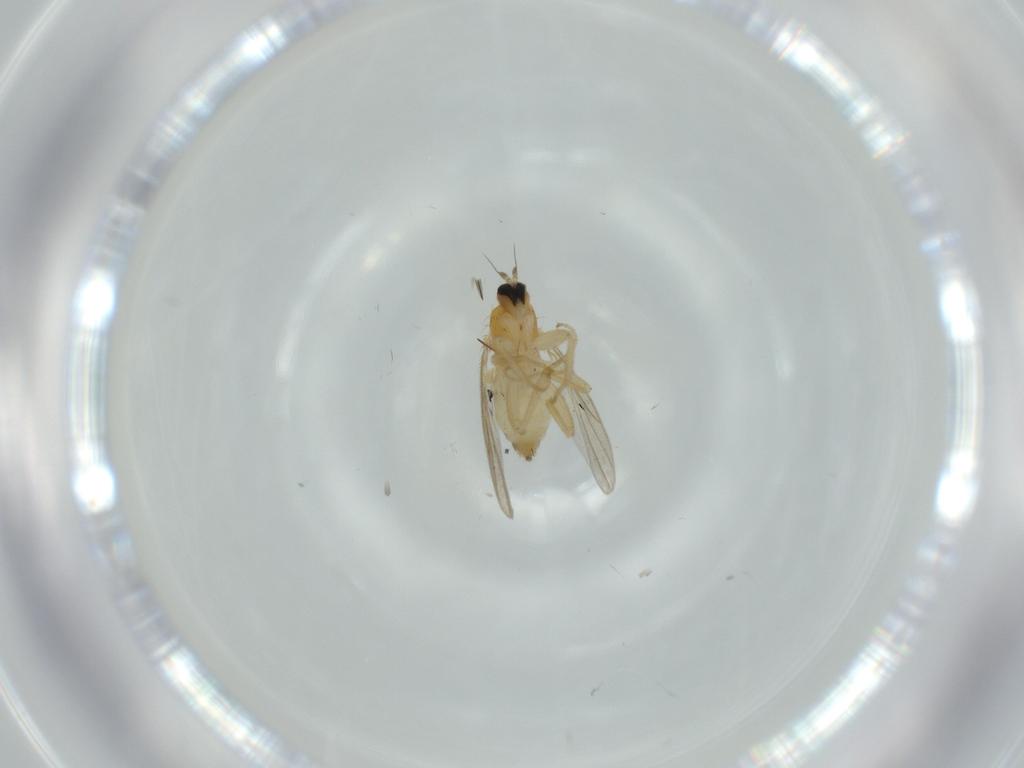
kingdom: Animalia
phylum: Arthropoda
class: Insecta
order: Diptera
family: Hybotidae
